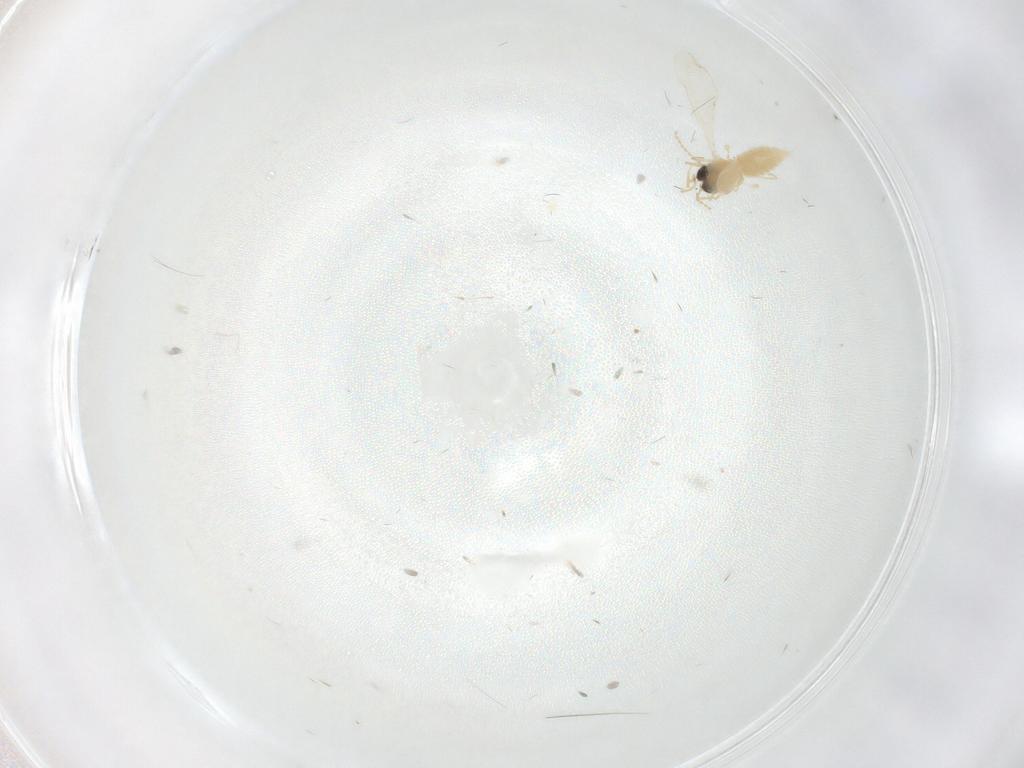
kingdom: Animalia
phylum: Arthropoda
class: Insecta
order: Diptera
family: Cecidomyiidae
